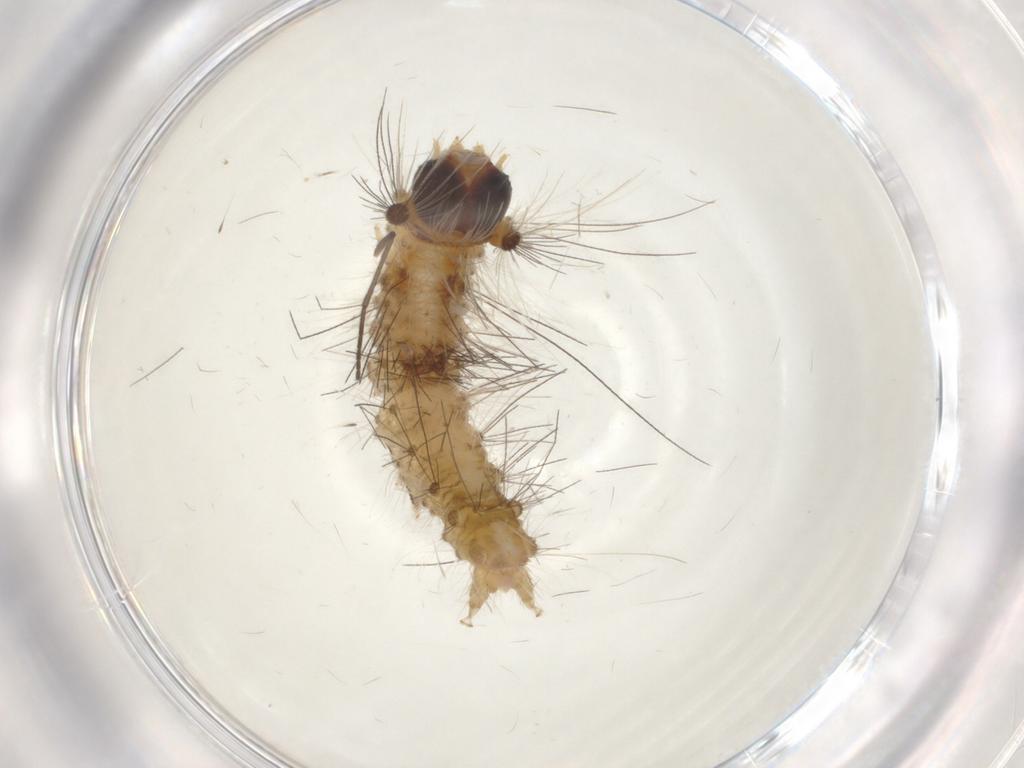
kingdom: Animalia
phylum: Arthropoda
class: Insecta
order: Lepidoptera
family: Erebidae
